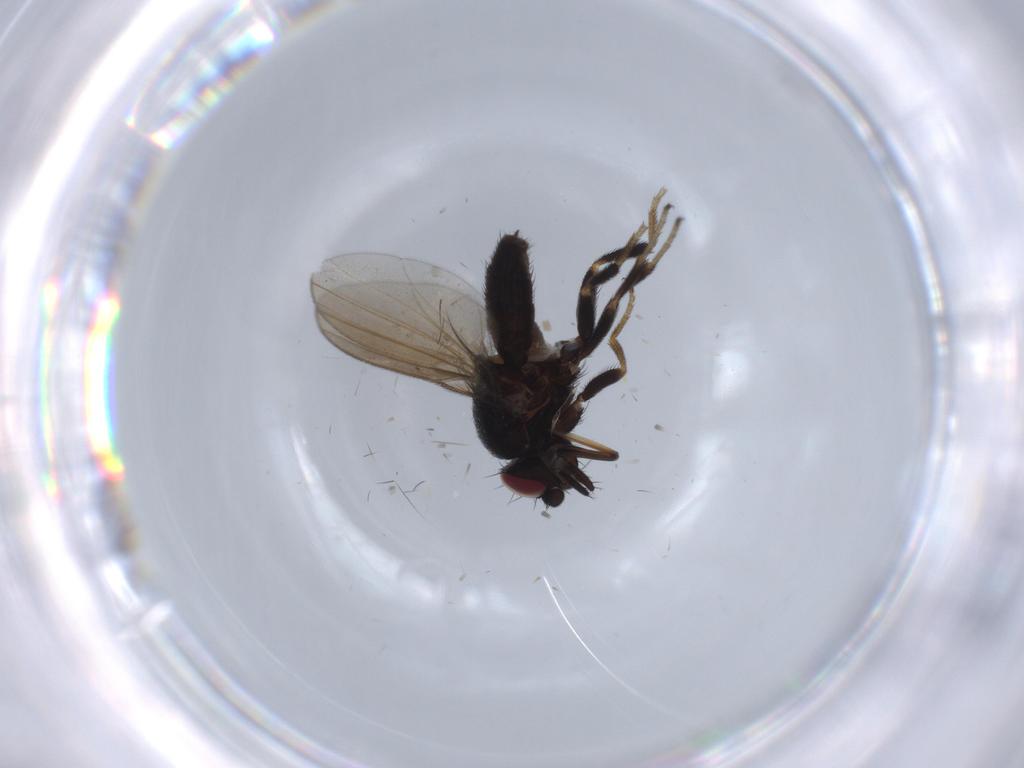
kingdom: Animalia
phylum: Arthropoda
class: Insecta
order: Diptera
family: Milichiidae
